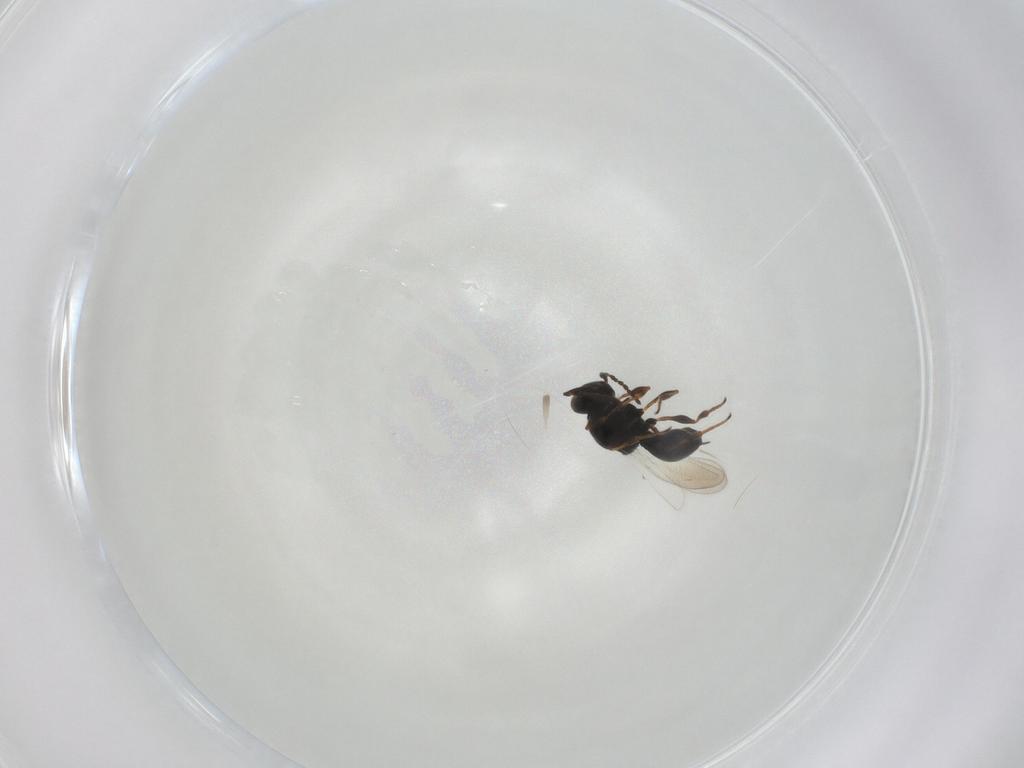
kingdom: Animalia
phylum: Arthropoda
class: Insecta
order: Hymenoptera
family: Platygastridae
